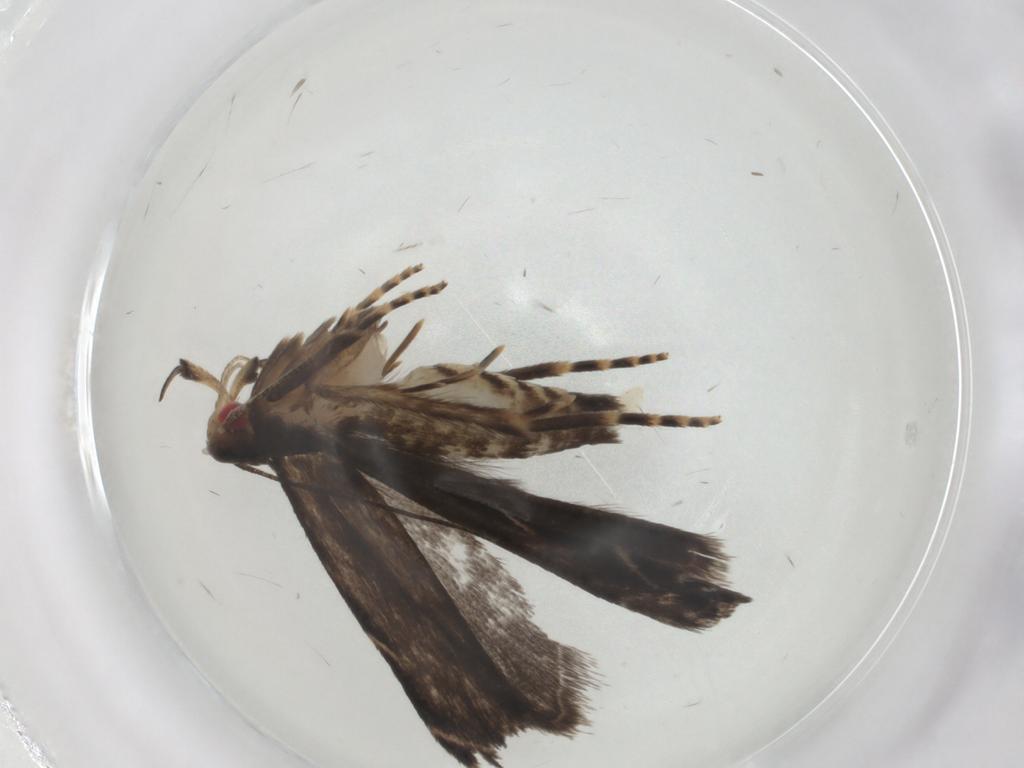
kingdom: Animalia
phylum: Arthropoda
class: Insecta
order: Lepidoptera
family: Gelechiidae
